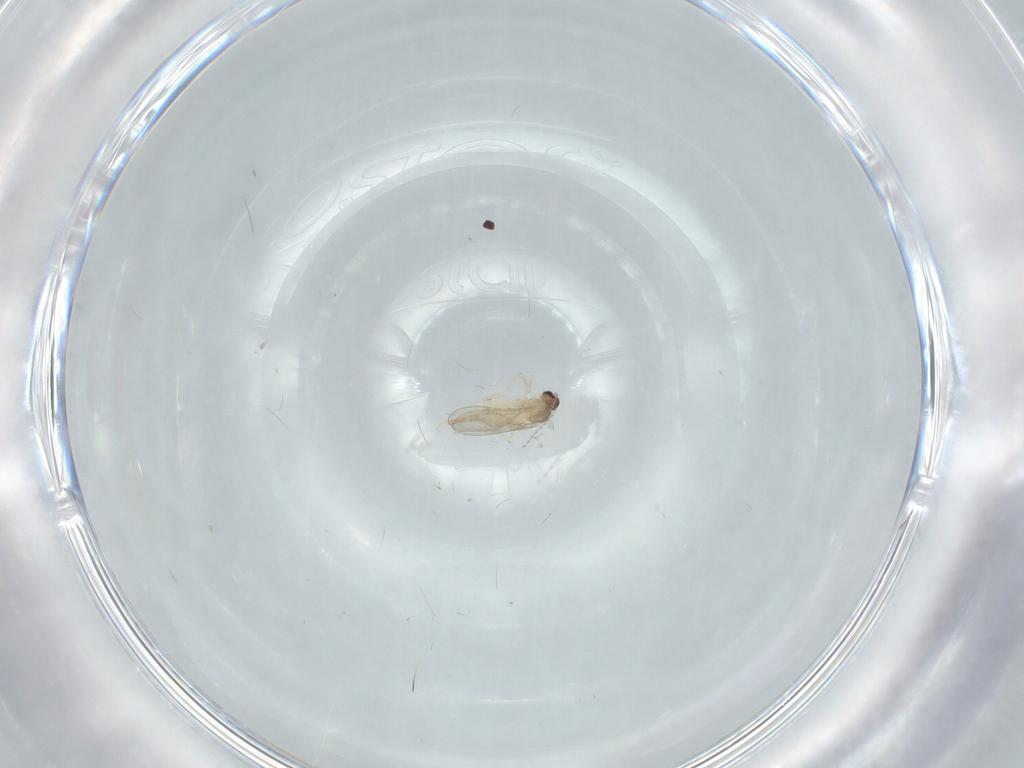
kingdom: Animalia
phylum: Arthropoda
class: Insecta
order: Diptera
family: Cecidomyiidae
